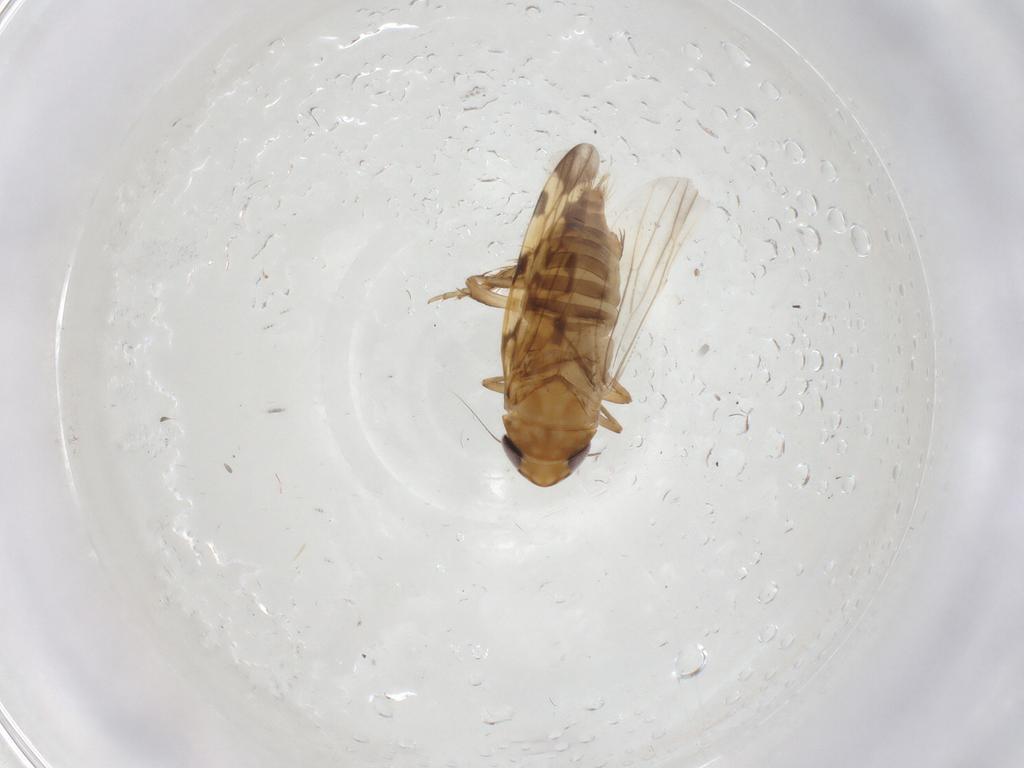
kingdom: Animalia
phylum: Arthropoda
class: Insecta
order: Hemiptera
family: Cicadellidae
